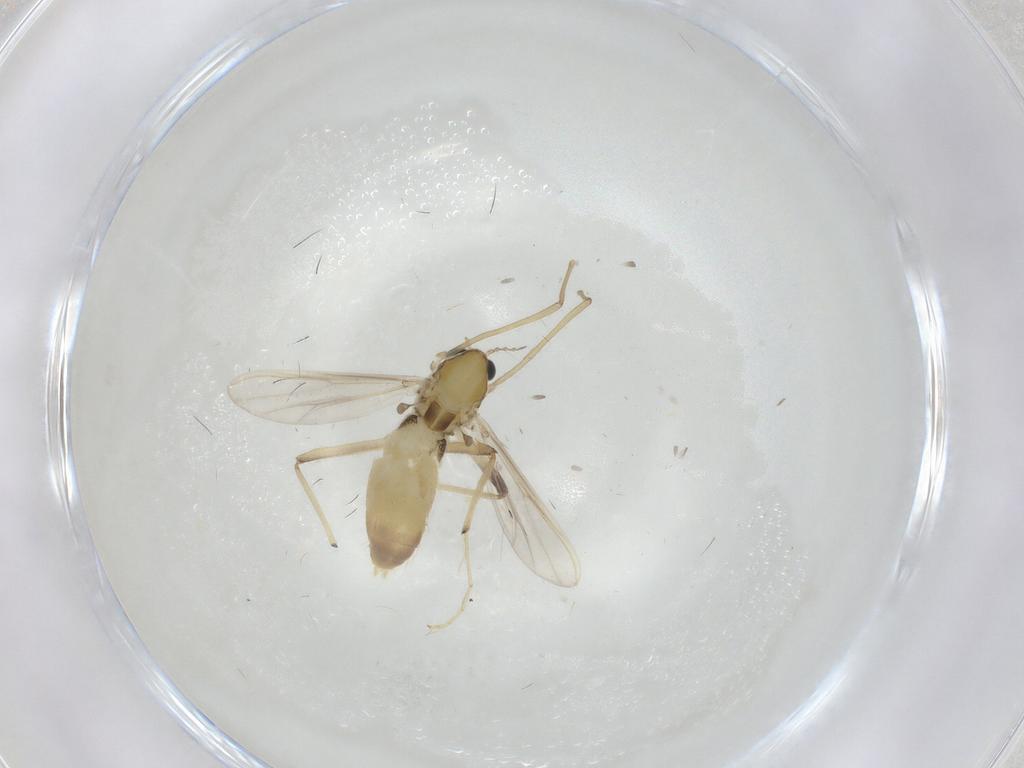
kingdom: Animalia
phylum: Arthropoda
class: Insecta
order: Diptera
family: Chironomidae
